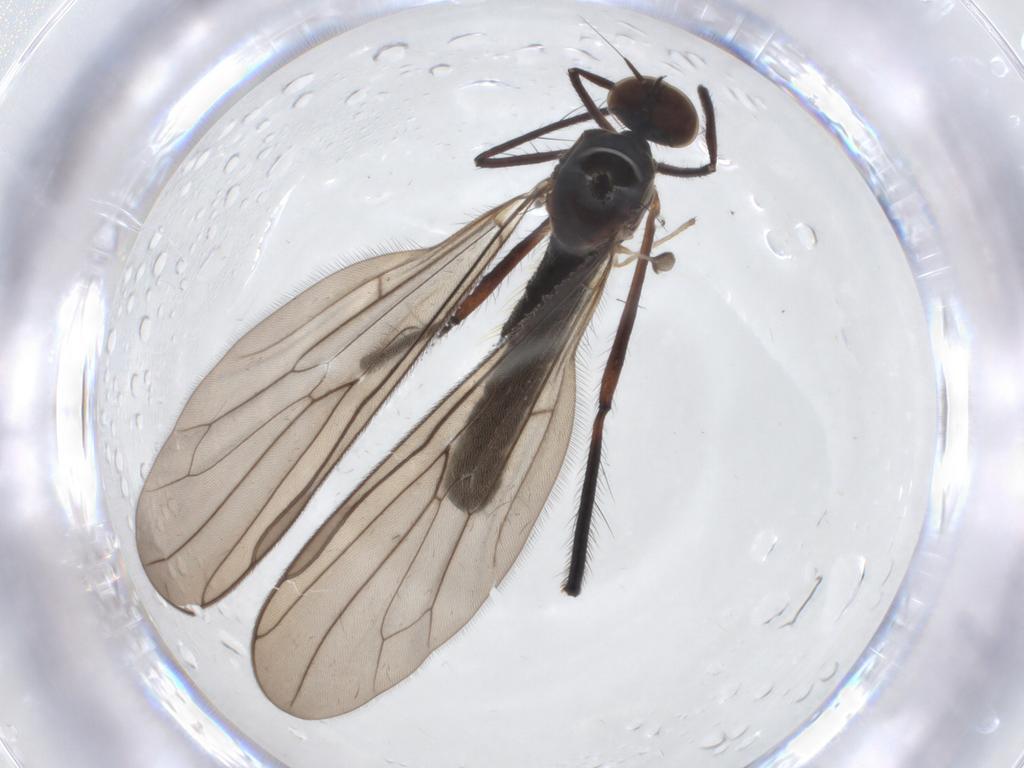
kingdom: Animalia
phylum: Arthropoda
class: Insecta
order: Diptera
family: Hybotidae
